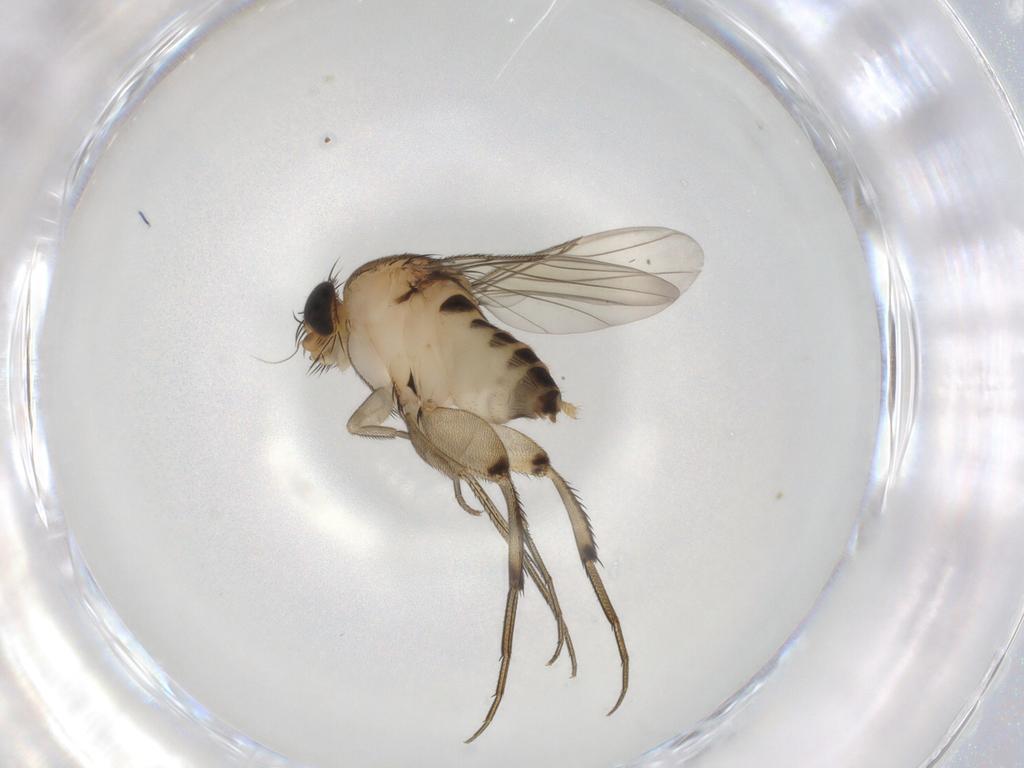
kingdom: Animalia
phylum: Arthropoda
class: Insecta
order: Diptera
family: Phoridae
